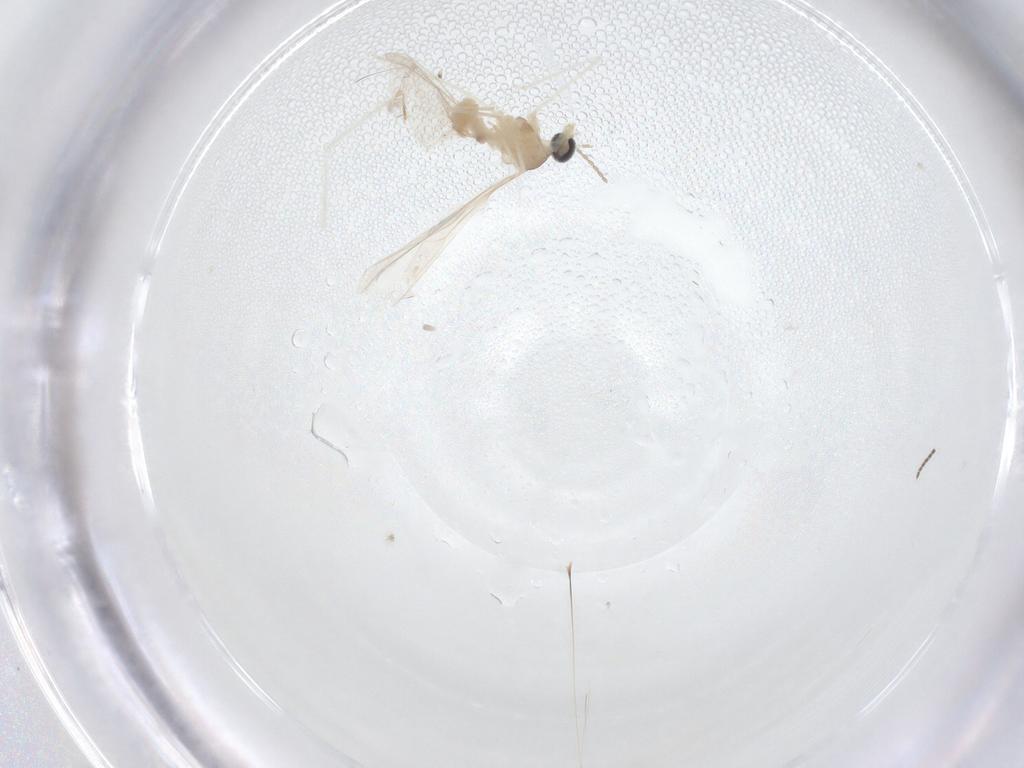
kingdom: Animalia
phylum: Arthropoda
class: Insecta
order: Diptera
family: Cecidomyiidae
